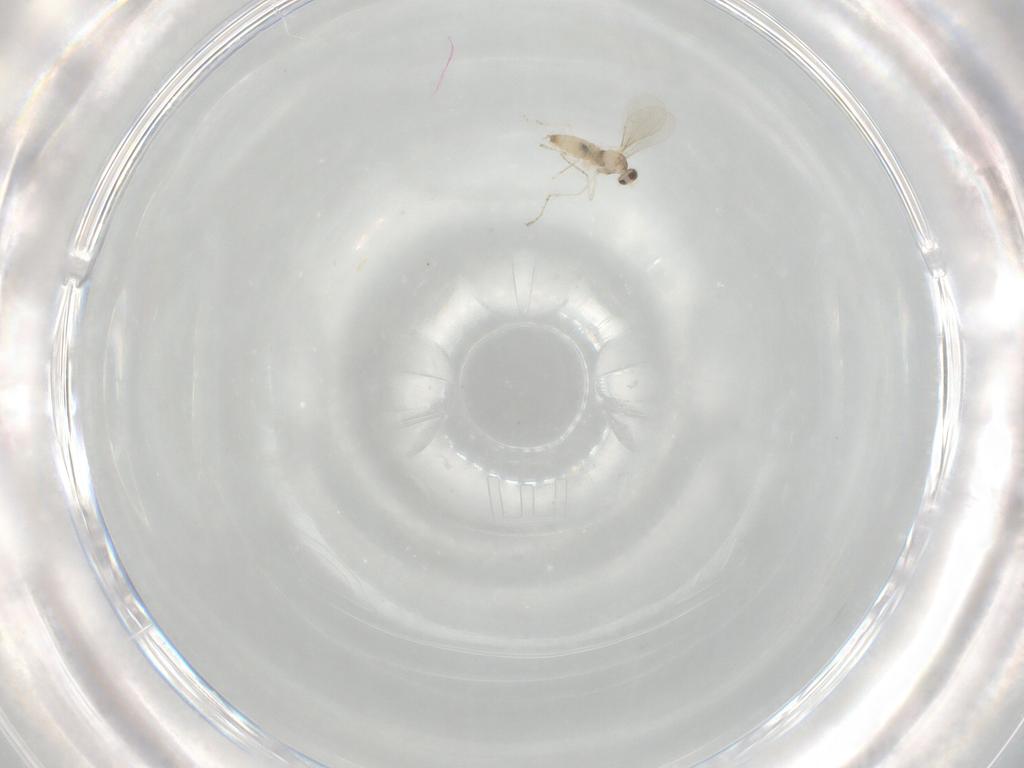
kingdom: Animalia
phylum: Arthropoda
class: Insecta
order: Diptera
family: Cecidomyiidae
